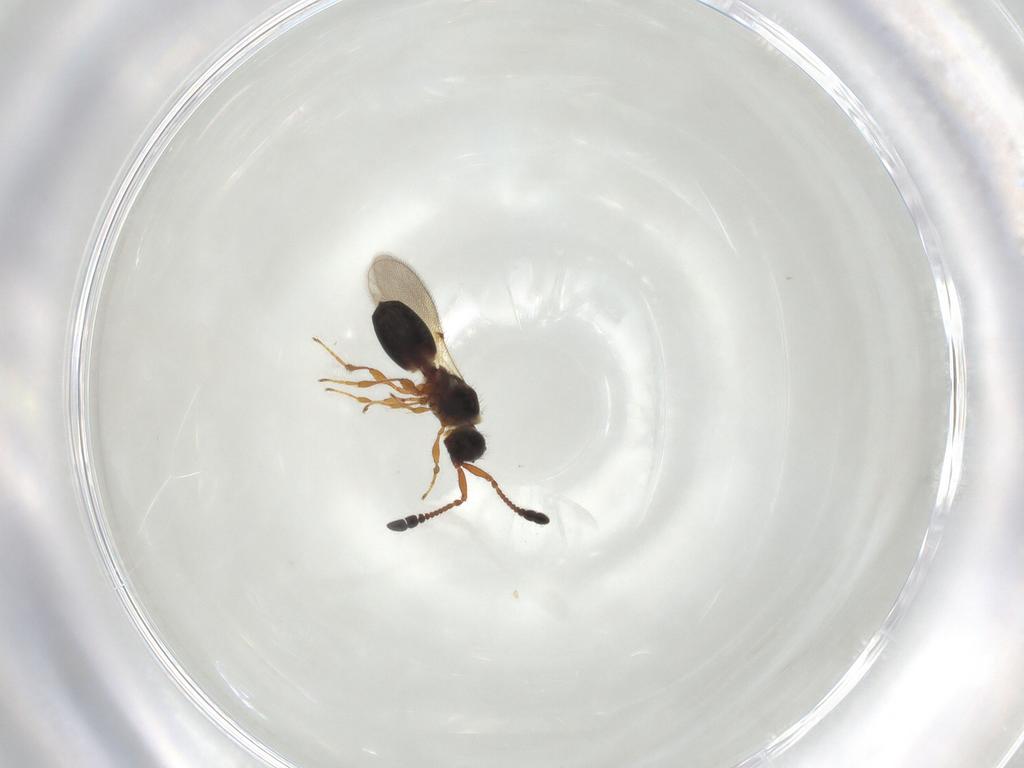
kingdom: Animalia
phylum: Arthropoda
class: Insecta
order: Hymenoptera
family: Diapriidae
